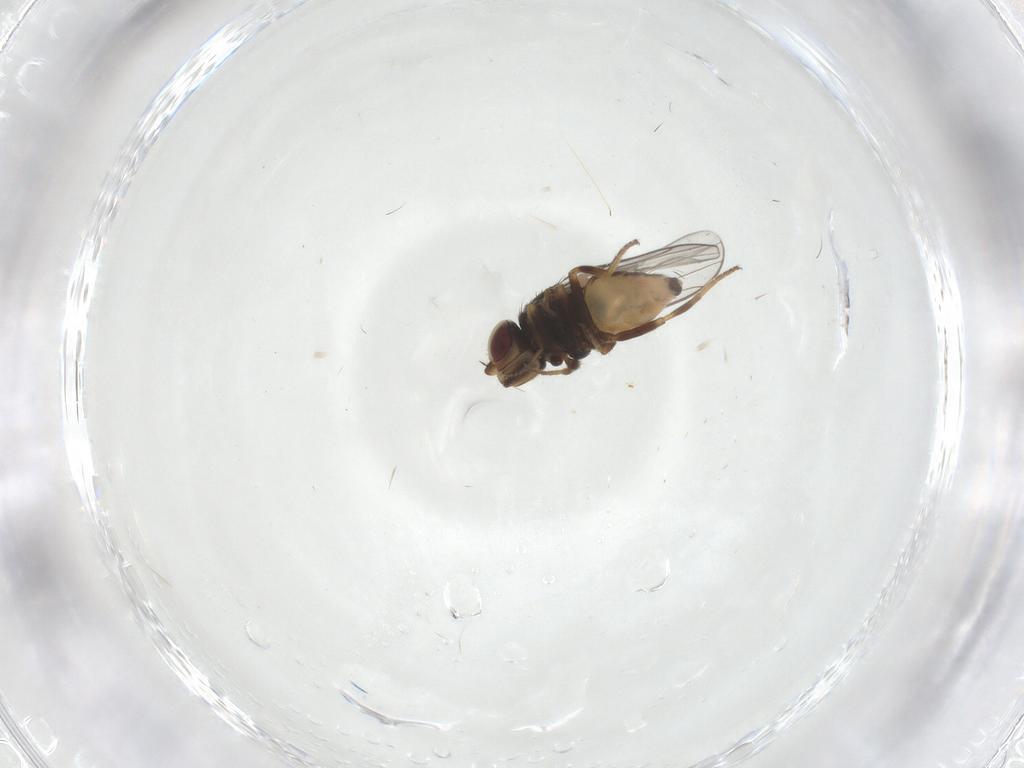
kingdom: Animalia
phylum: Arthropoda
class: Insecta
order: Diptera
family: Chloropidae
